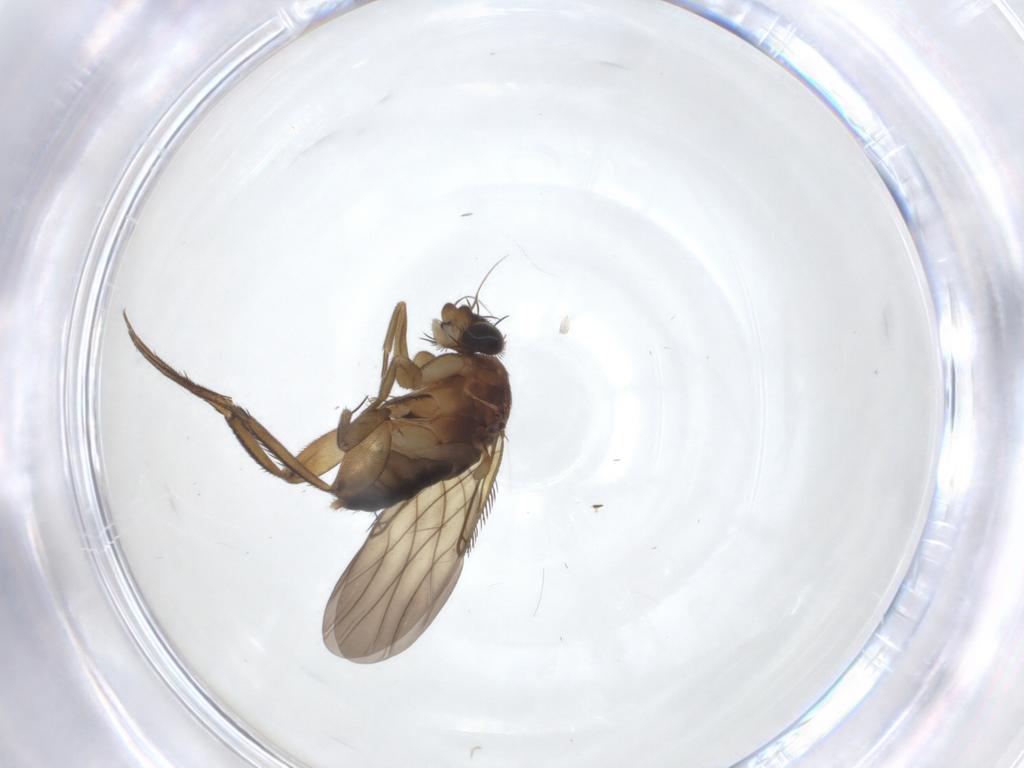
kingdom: Animalia
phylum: Arthropoda
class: Insecta
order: Diptera
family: Phoridae
